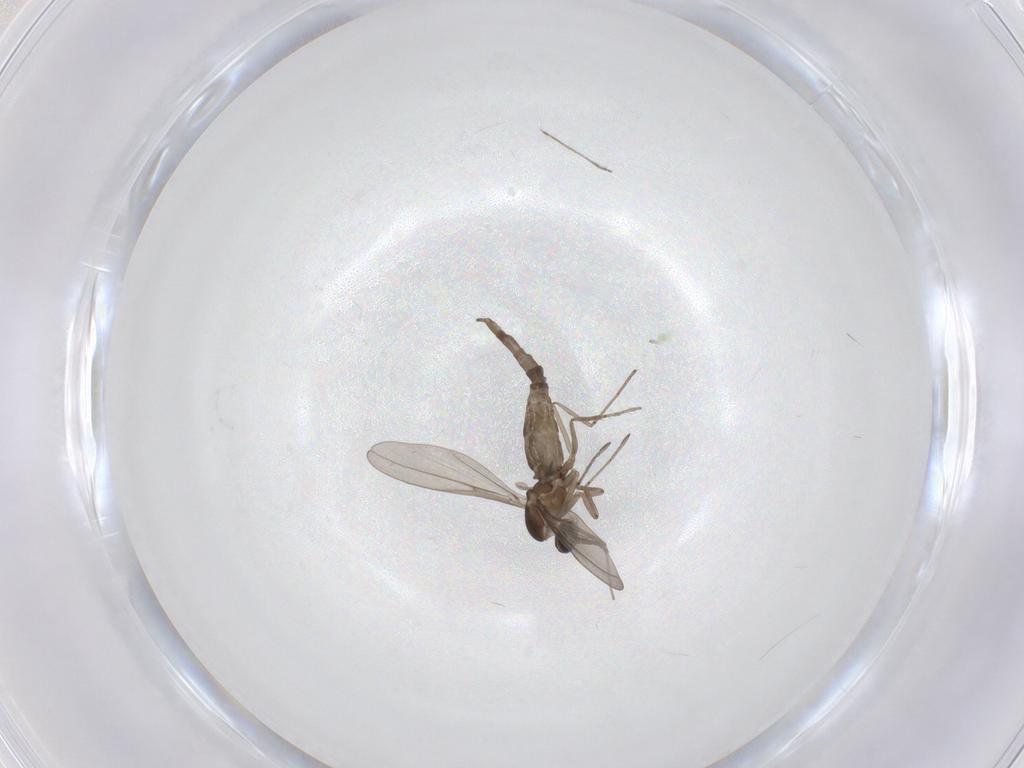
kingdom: Animalia
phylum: Arthropoda
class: Insecta
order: Diptera
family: Cecidomyiidae
